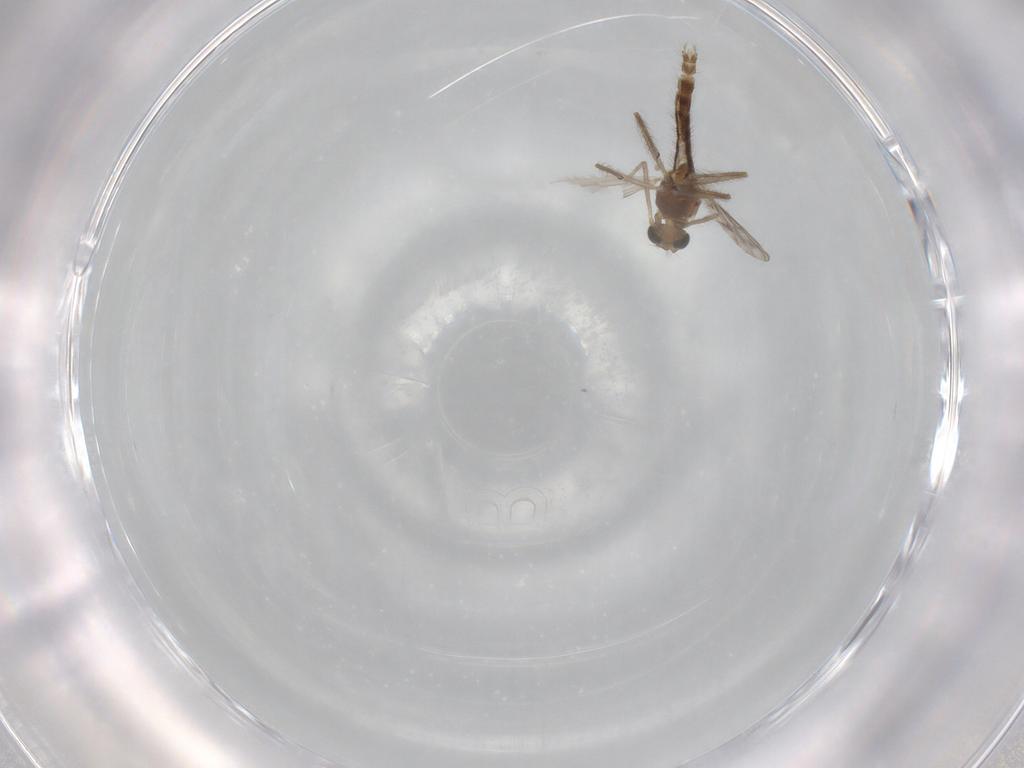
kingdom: Animalia
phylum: Arthropoda
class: Insecta
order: Diptera
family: Chironomidae
